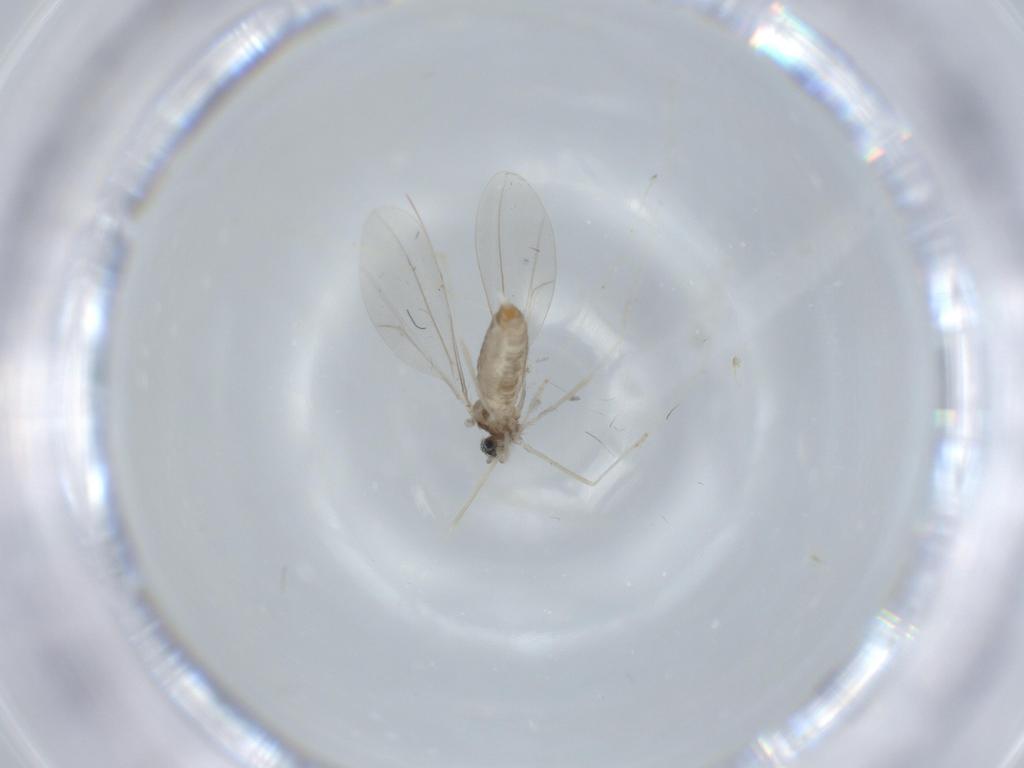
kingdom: Animalia
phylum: Arthropoda
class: Insecta
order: Diptera
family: Cecidomyiidae
